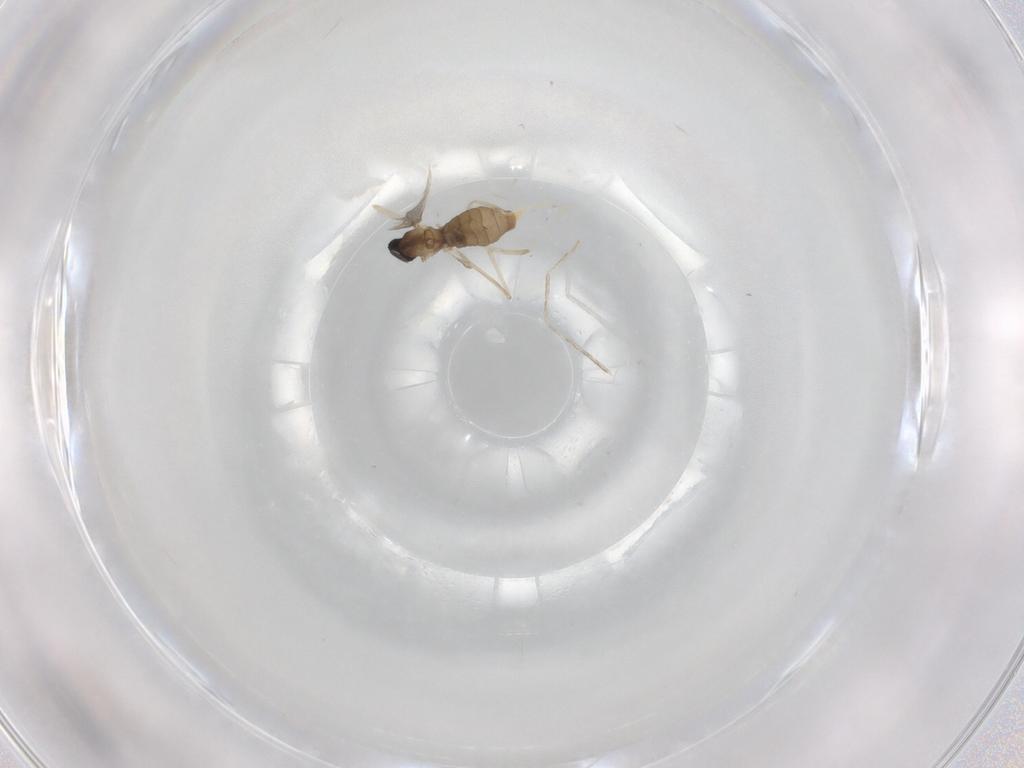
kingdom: Animalia
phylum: Arthropoda
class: Insecta
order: Diptera
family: Cecidomyiidae
